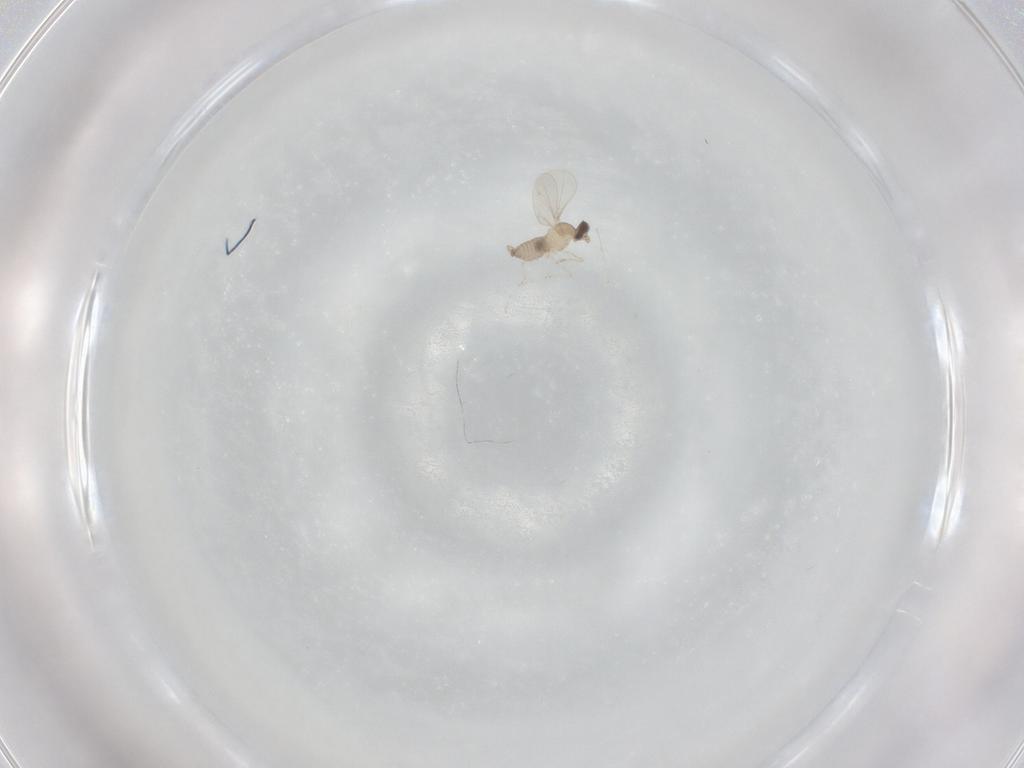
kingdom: Animalia
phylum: Arthropoda
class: Insecta
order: Diptera
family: Cecidomyiidae
